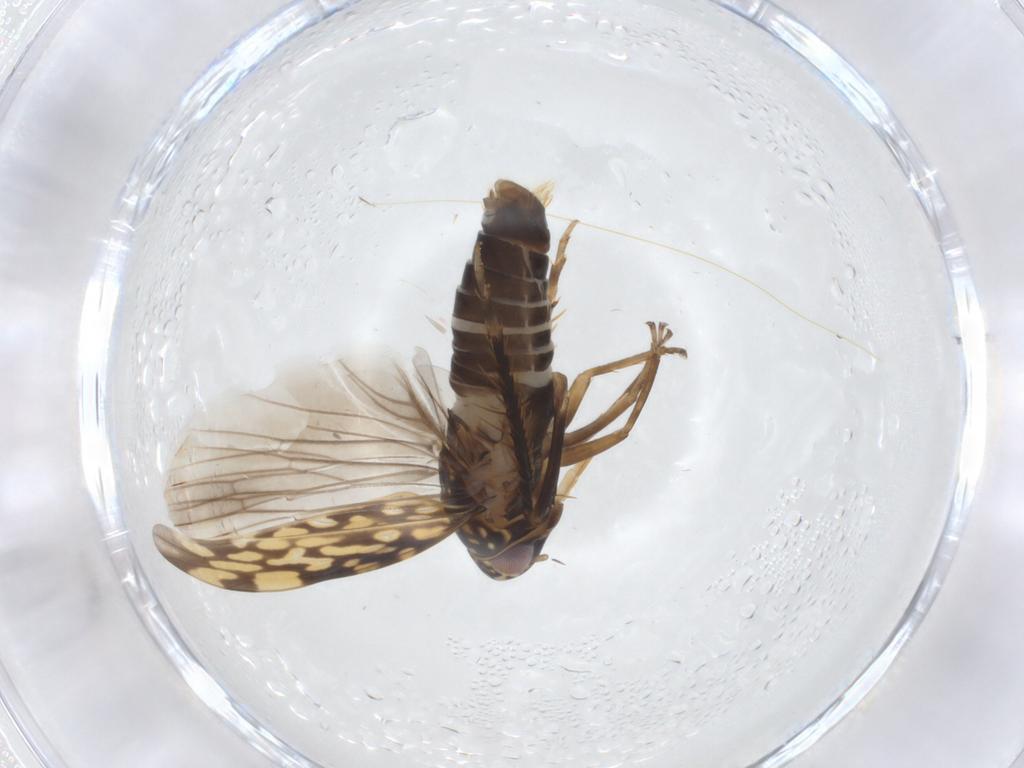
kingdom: Animalia
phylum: Arthropoda
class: Insecta
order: Hemiptera
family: Cicadellidae
